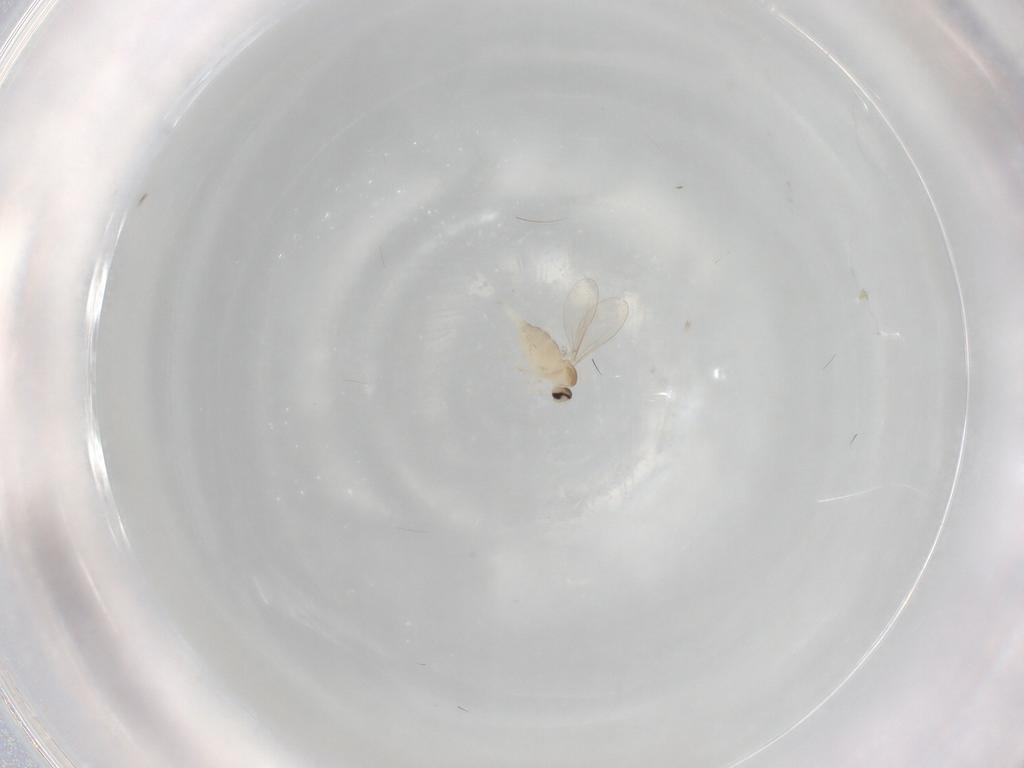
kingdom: Animalia
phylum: Arthropoda
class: Insecta
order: Diptera
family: Cecidomyiidae
